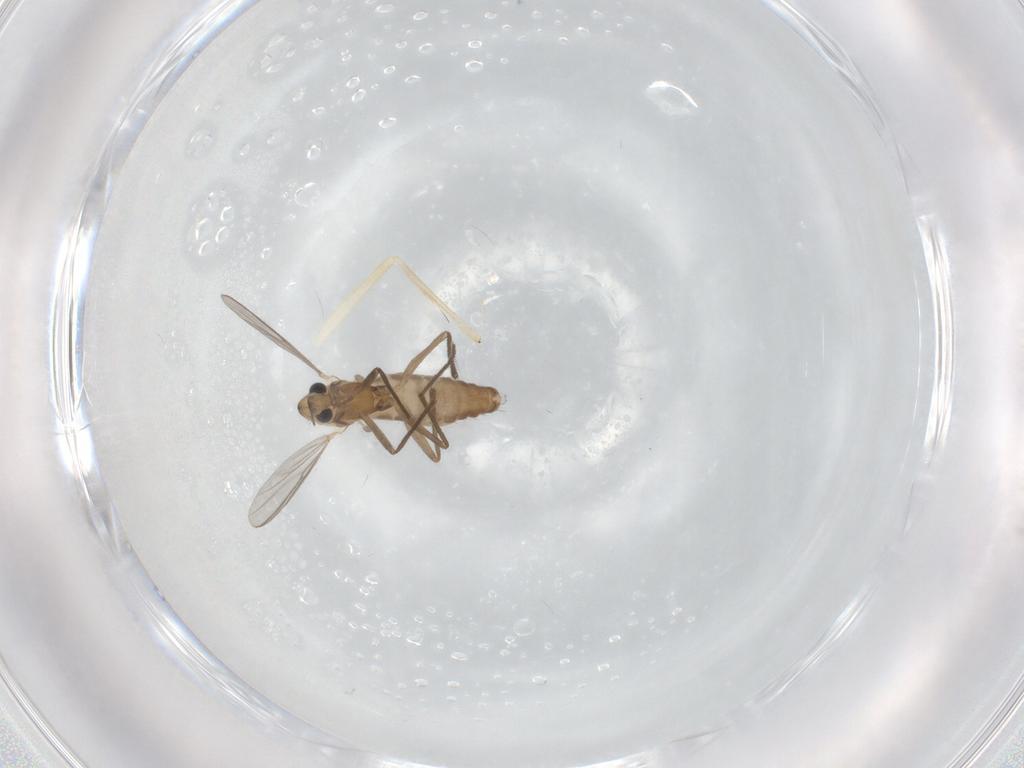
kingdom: Animalia
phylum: Arthropoda
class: Insecta
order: Diptera
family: Chironomidae
